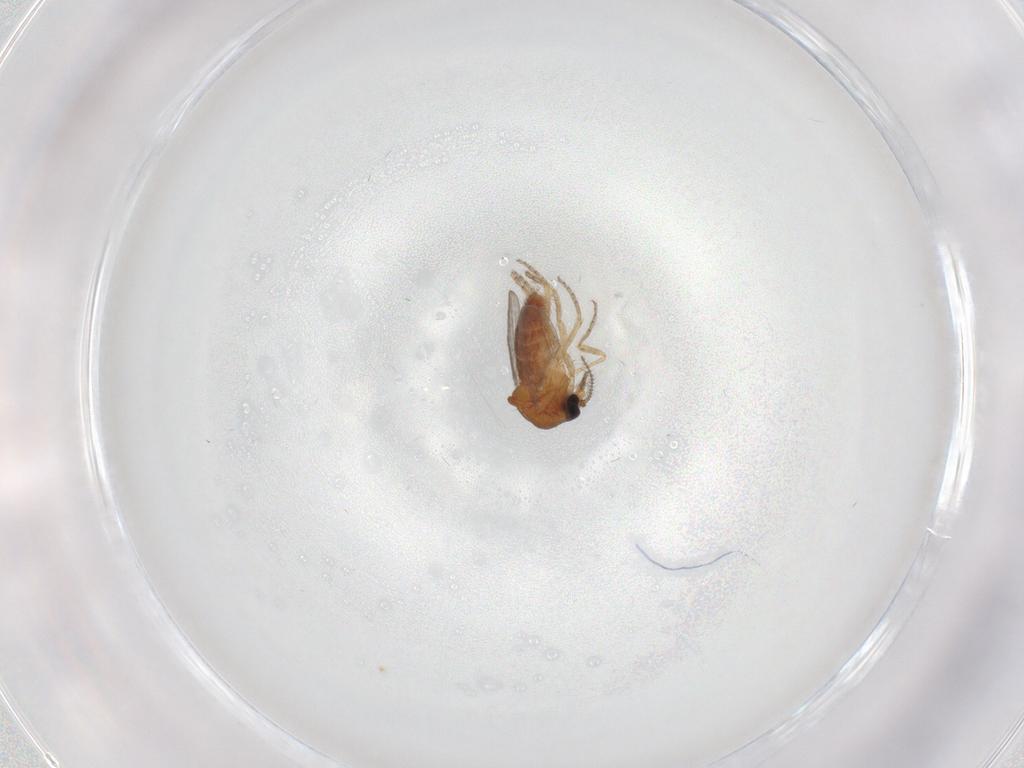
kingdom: Animalia
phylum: Arthropoda
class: Insecta
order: Diptera
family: Ceratopogonidae
